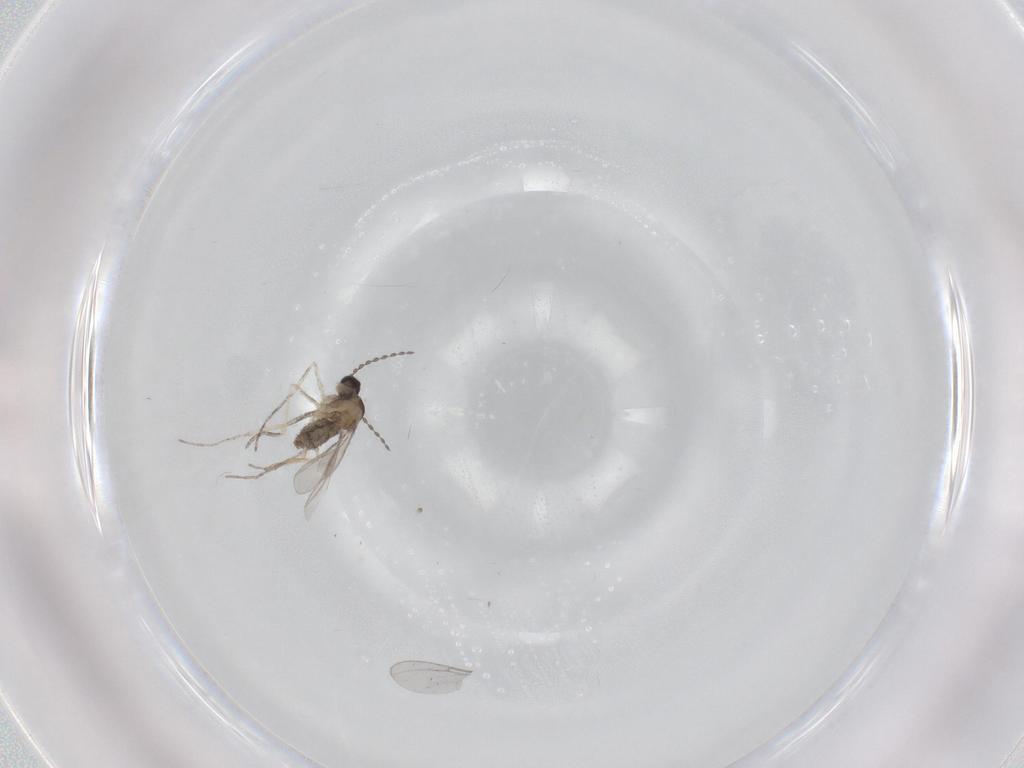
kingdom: Animalia
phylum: Arthropoda
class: Insecta
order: Diptera
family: Cecidomyiidae
